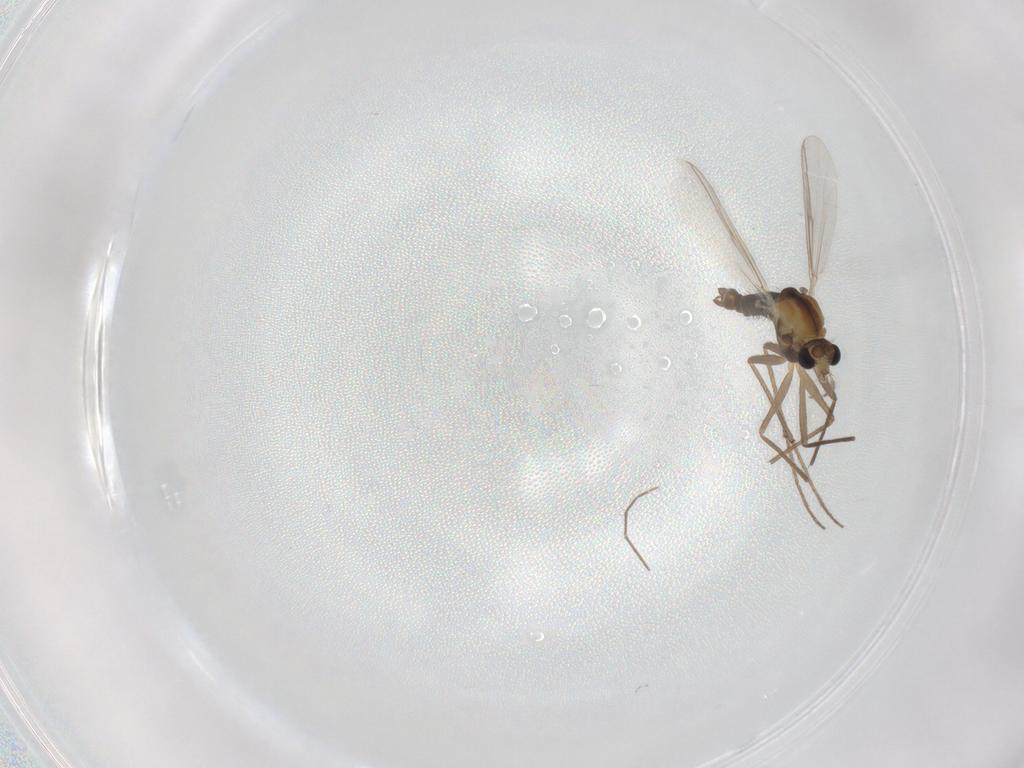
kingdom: Animalia
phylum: Arthropoda
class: Insecta
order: Diptera
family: Chironomidae
